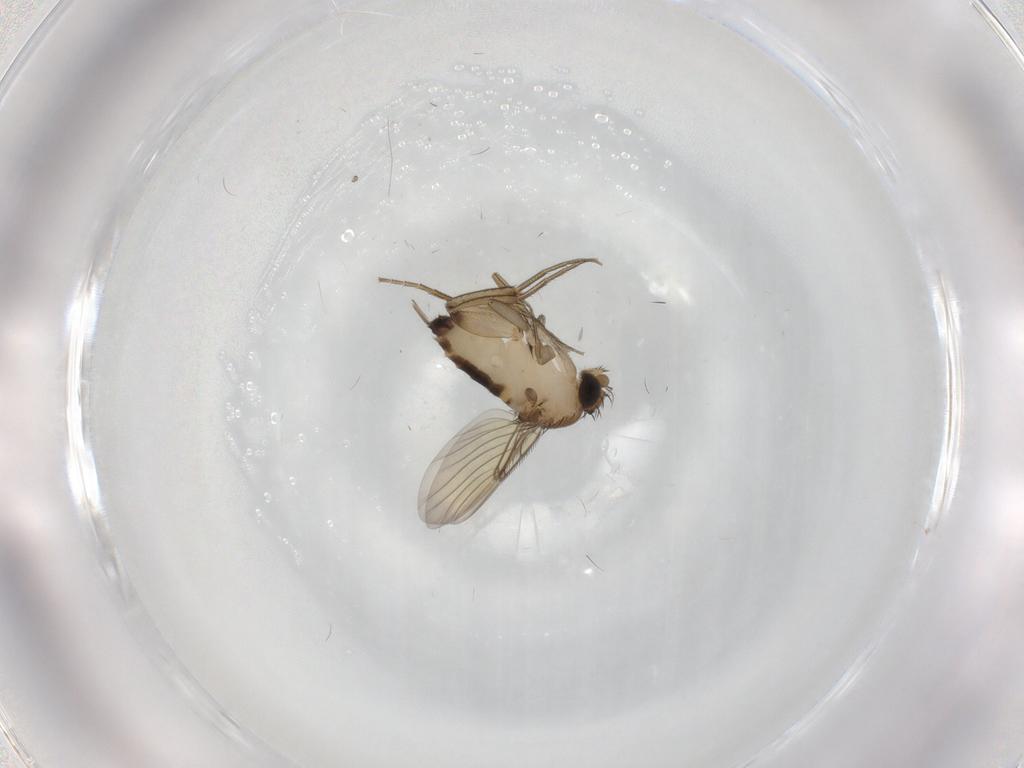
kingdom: Animalia
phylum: Arthropoda
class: Insecta
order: Diptera
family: Phoridae
